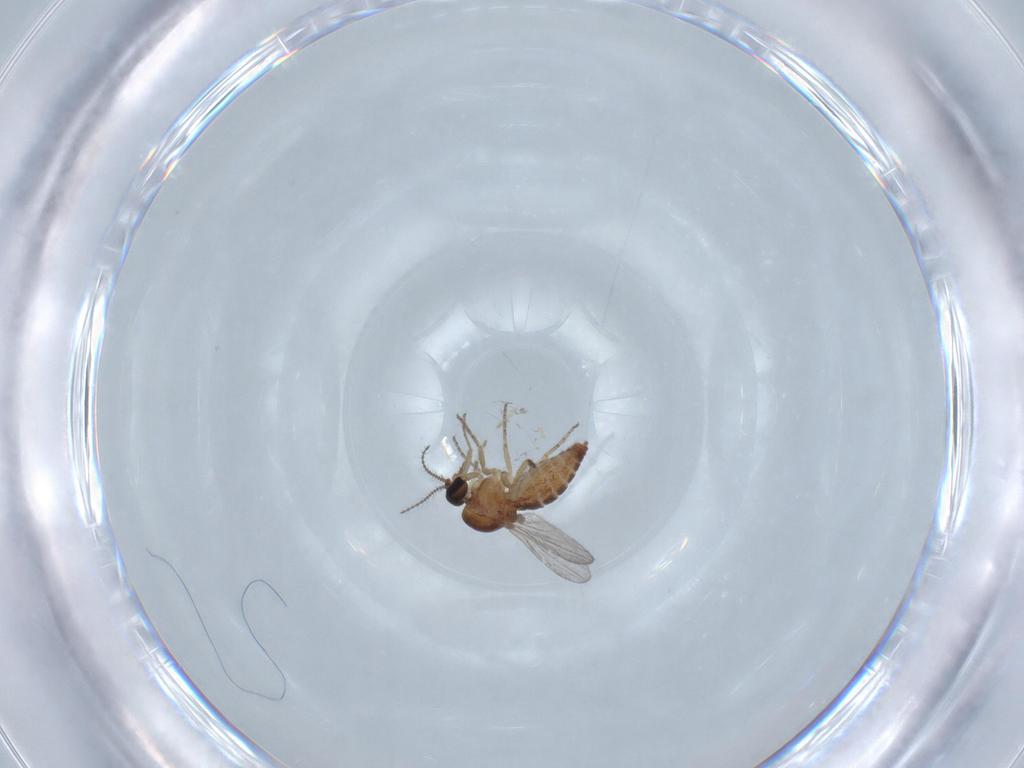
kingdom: Animalia
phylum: Arthropoda
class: Insecta
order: Diptera
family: Ceratopogonidae
